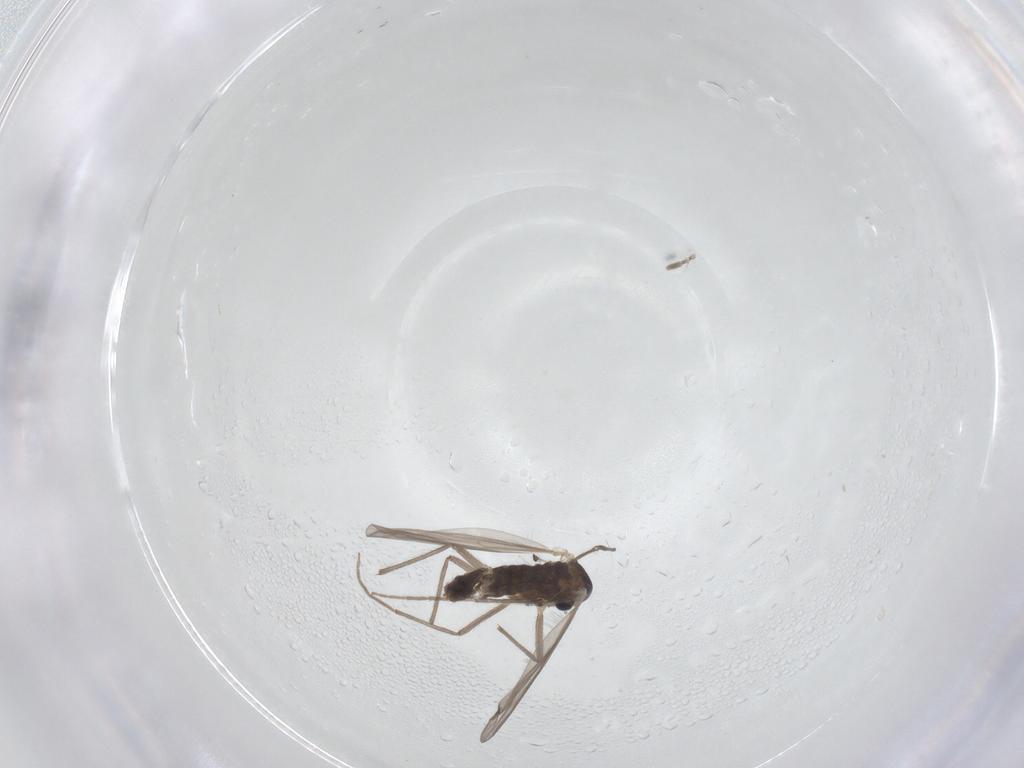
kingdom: Animalia
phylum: Arthropoda
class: Insecta
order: Diptera
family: Chironomidae
